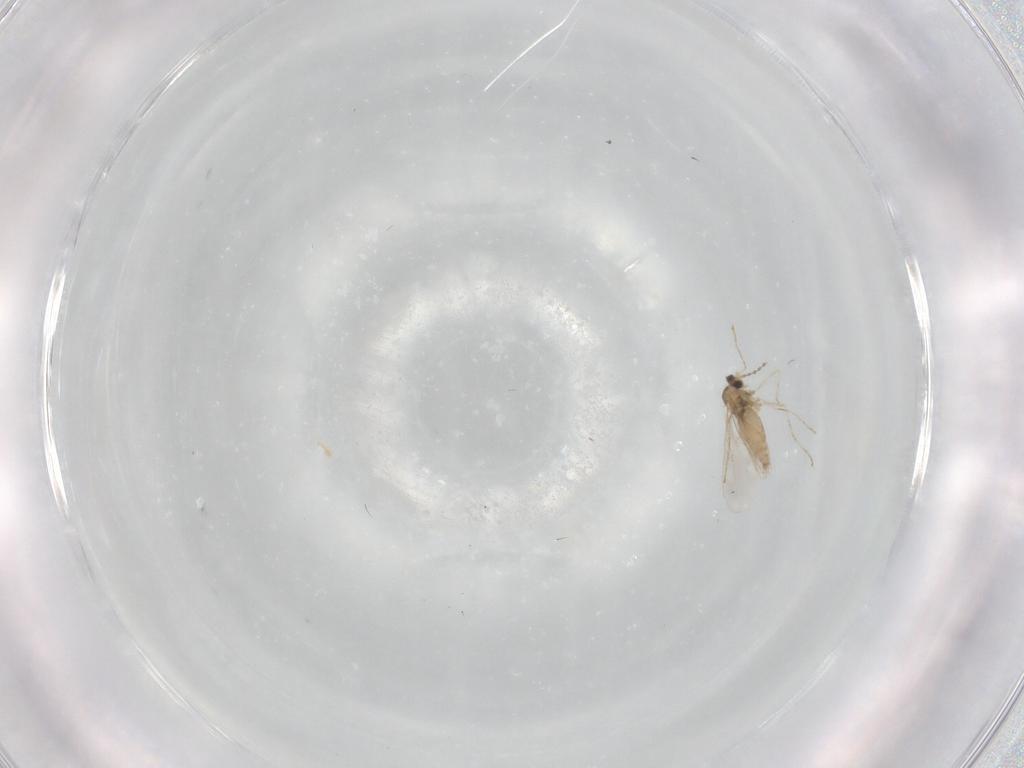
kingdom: Animalia
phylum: Arthropoda
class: Insecta
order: Diptera
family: Cecidomyiidae
